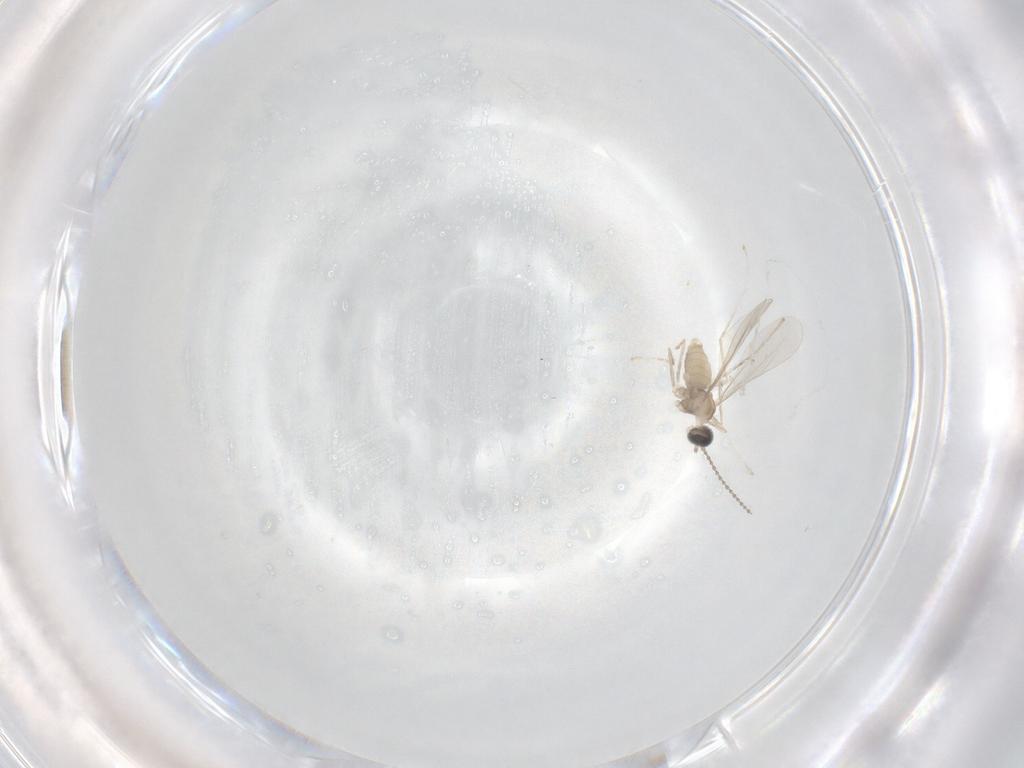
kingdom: Animalia
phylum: Arthropoda
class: Insecta
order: Diptera
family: Cecidomyiidae
